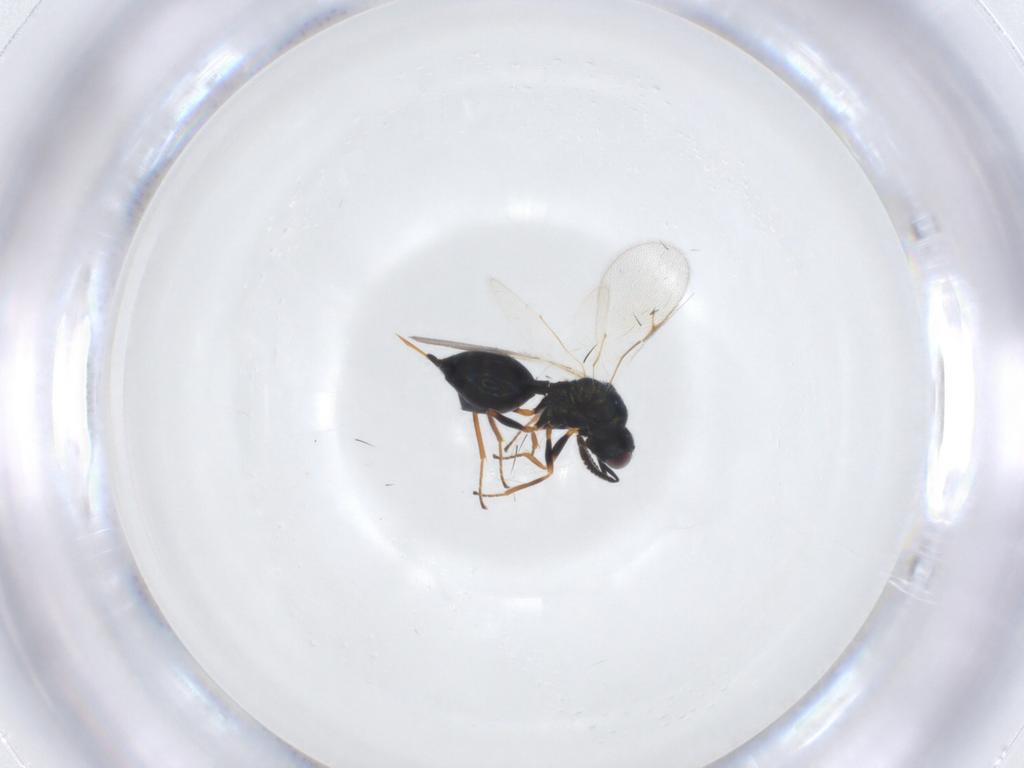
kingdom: Animalia
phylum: Arthropoda
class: Insecta
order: Hymenoptera
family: Chalcidoidea_incertae_sedis
